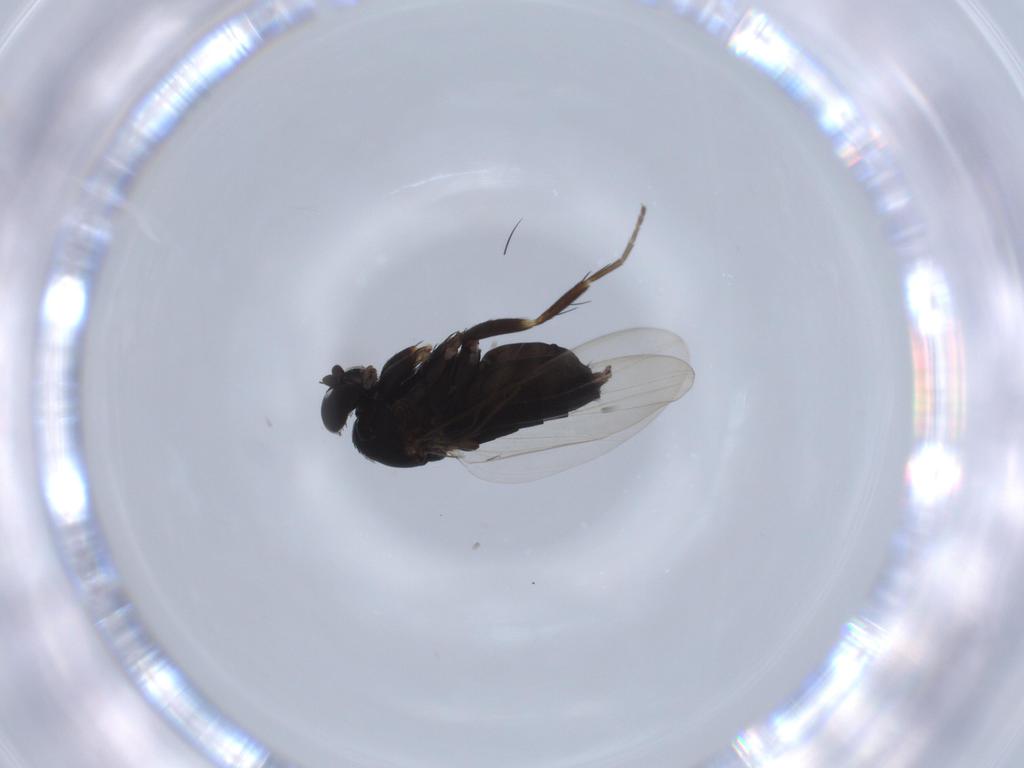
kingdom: Animalia
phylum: Arthropoda
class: Insecta
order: Diptera
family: Sciaridae
